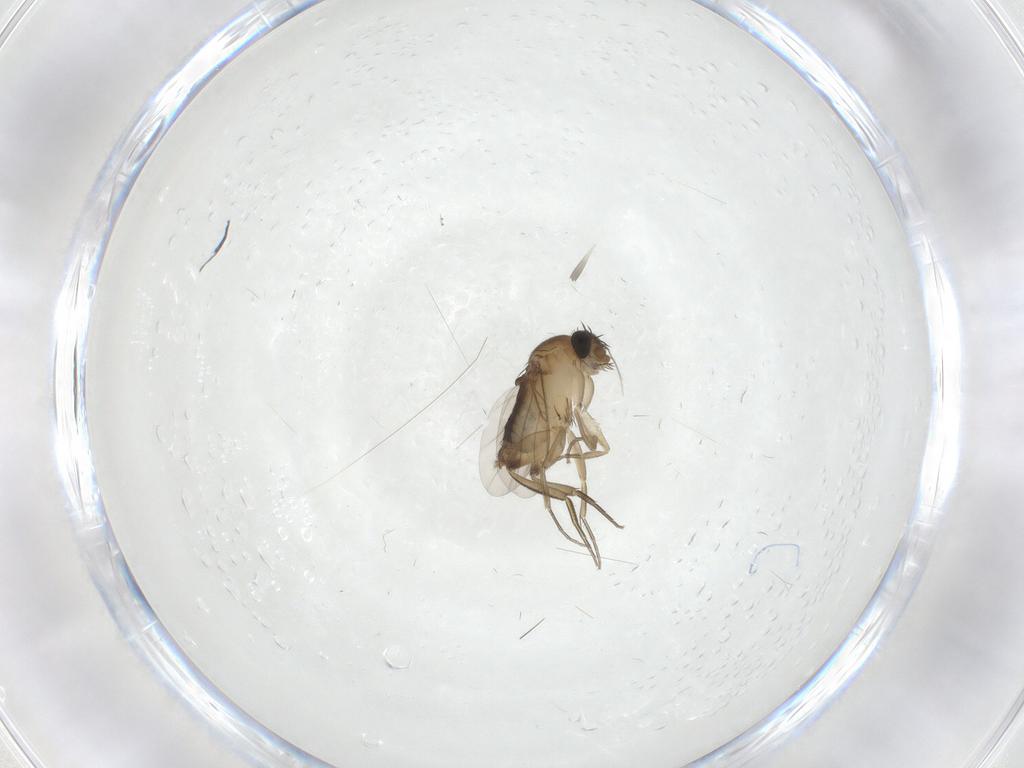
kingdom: Animalia
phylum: Arthropoda
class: Insecta
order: Diptera
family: Phoridae
